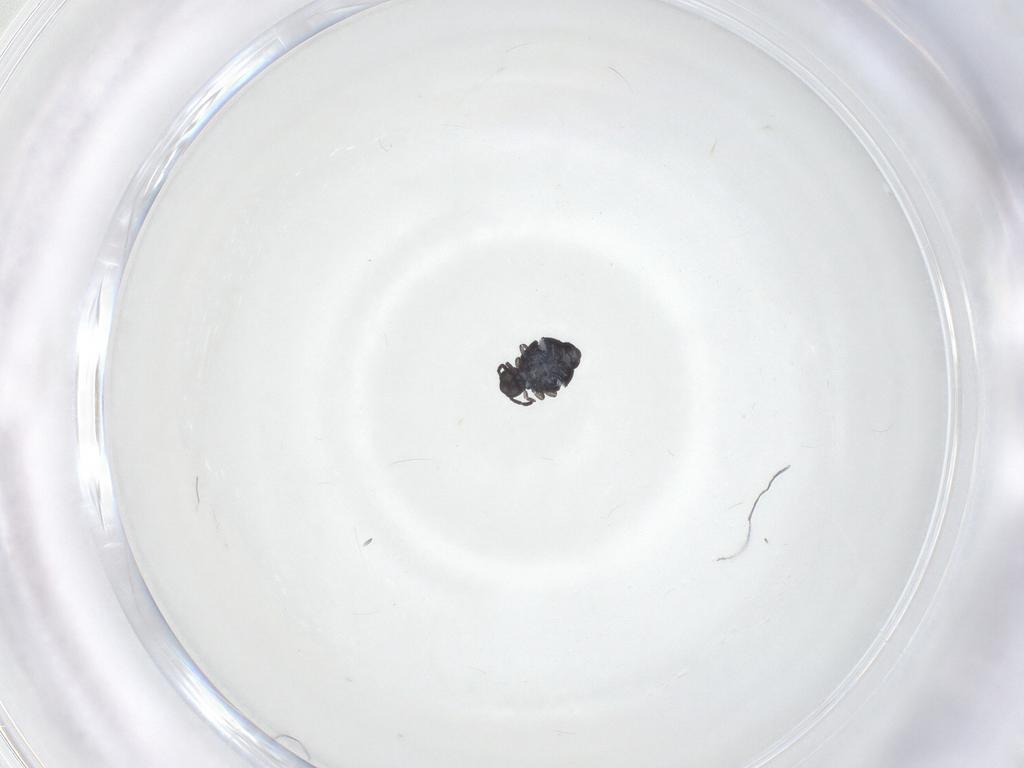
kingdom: Animalia
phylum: Arthropoda
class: Collembola
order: Symphypleona
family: Katiannidae
